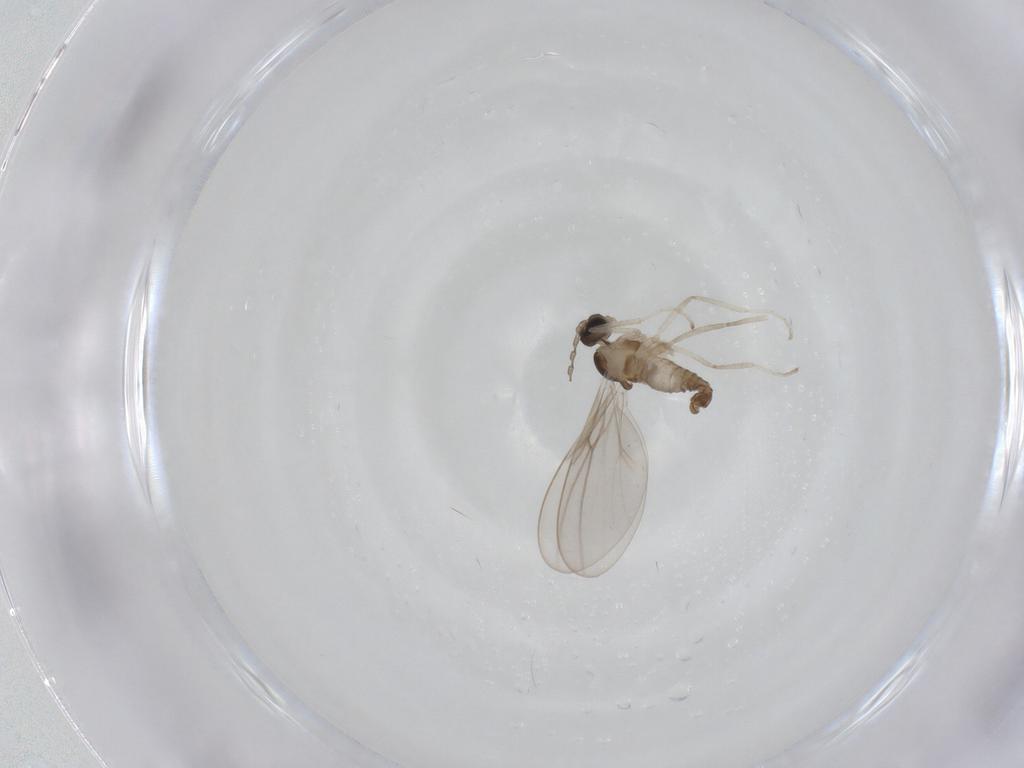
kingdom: Animalia
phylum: Arthropoda
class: Insecta
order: Diptera
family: Cecidomyiidae
